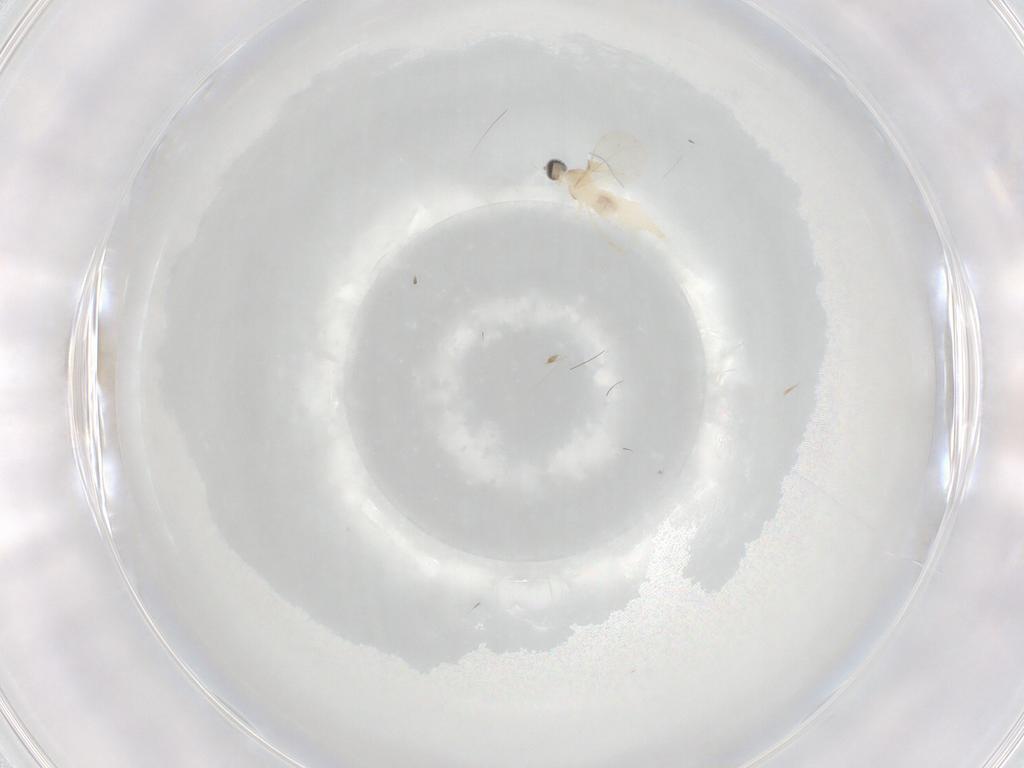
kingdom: Animalia
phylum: Arthropoda
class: Insecta
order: Diptera
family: Cecidomyiidae
